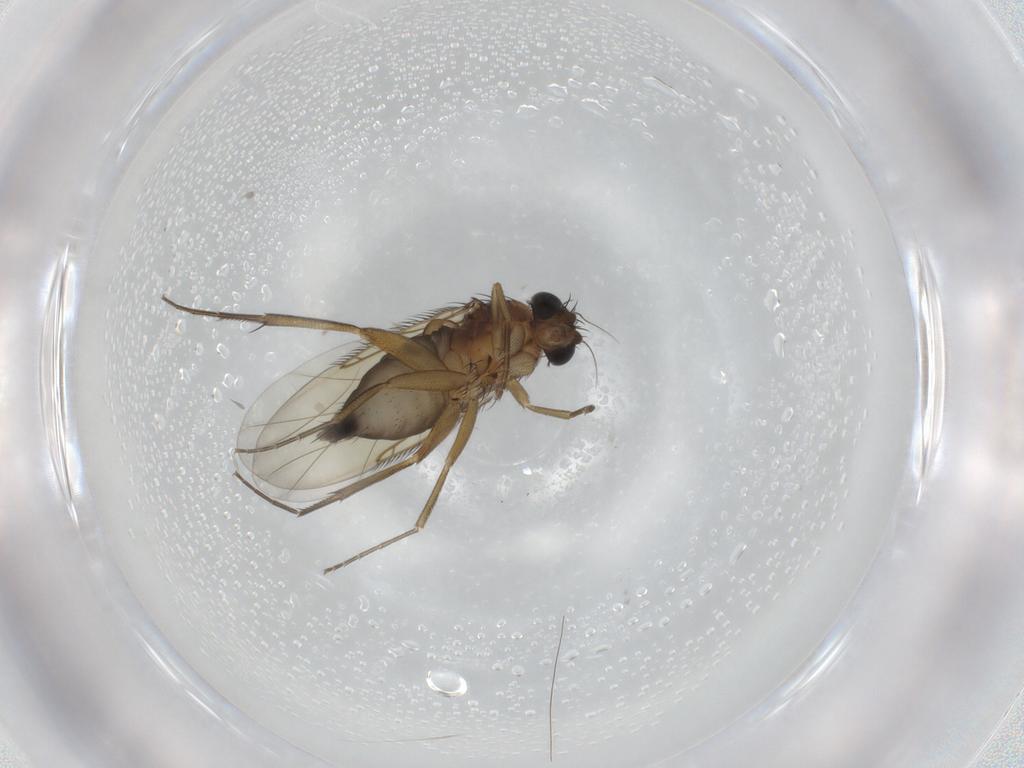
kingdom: Animalia
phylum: Arthropoda
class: Insecta
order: Diptera
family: Phoridae
